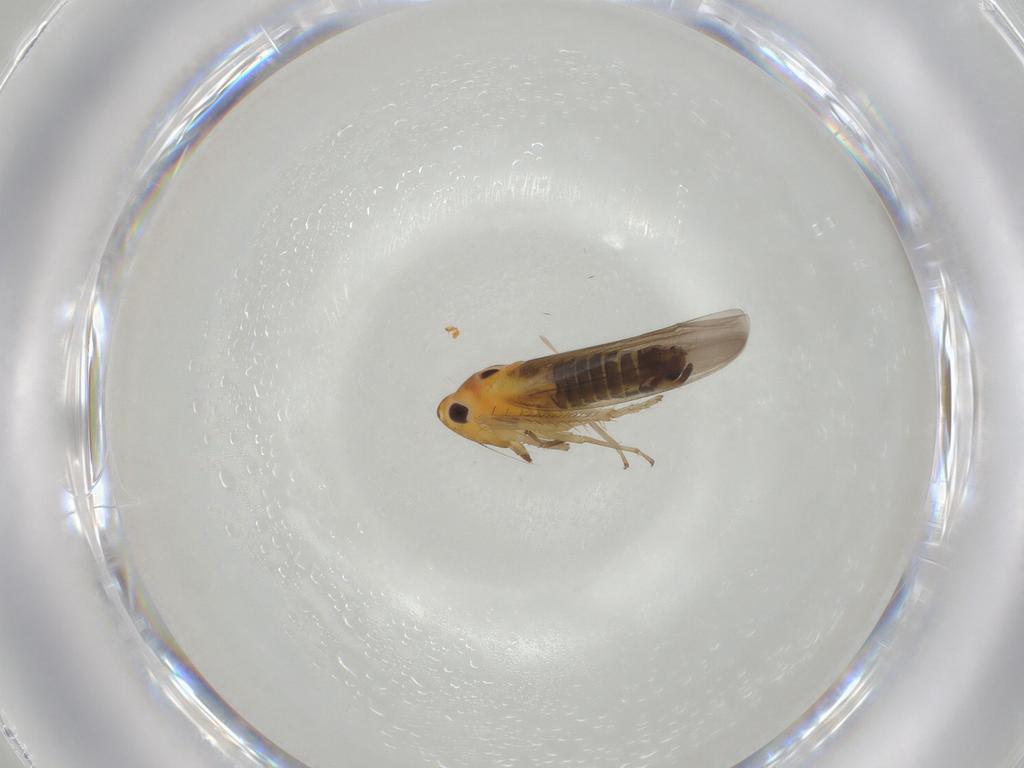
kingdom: Animalia
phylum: Arthropoda
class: Insecta
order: Hemiptera
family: Cicadellidae
